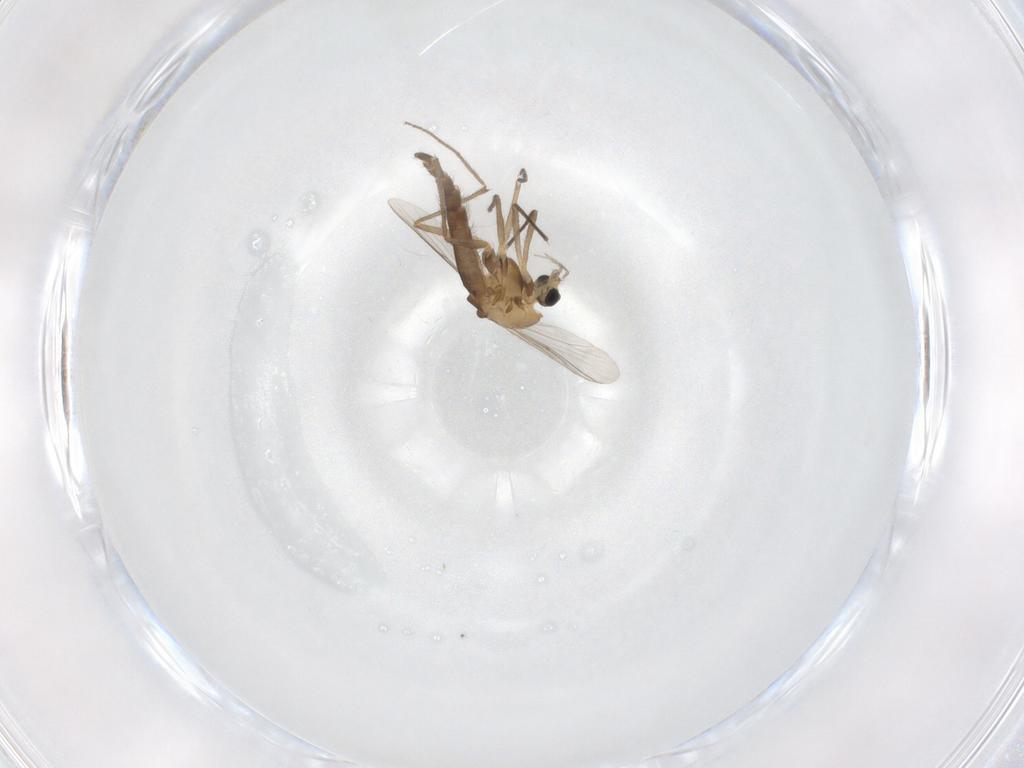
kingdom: Animalia
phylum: Arthropoda
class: Insecta
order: Diptera
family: Chironomidae
